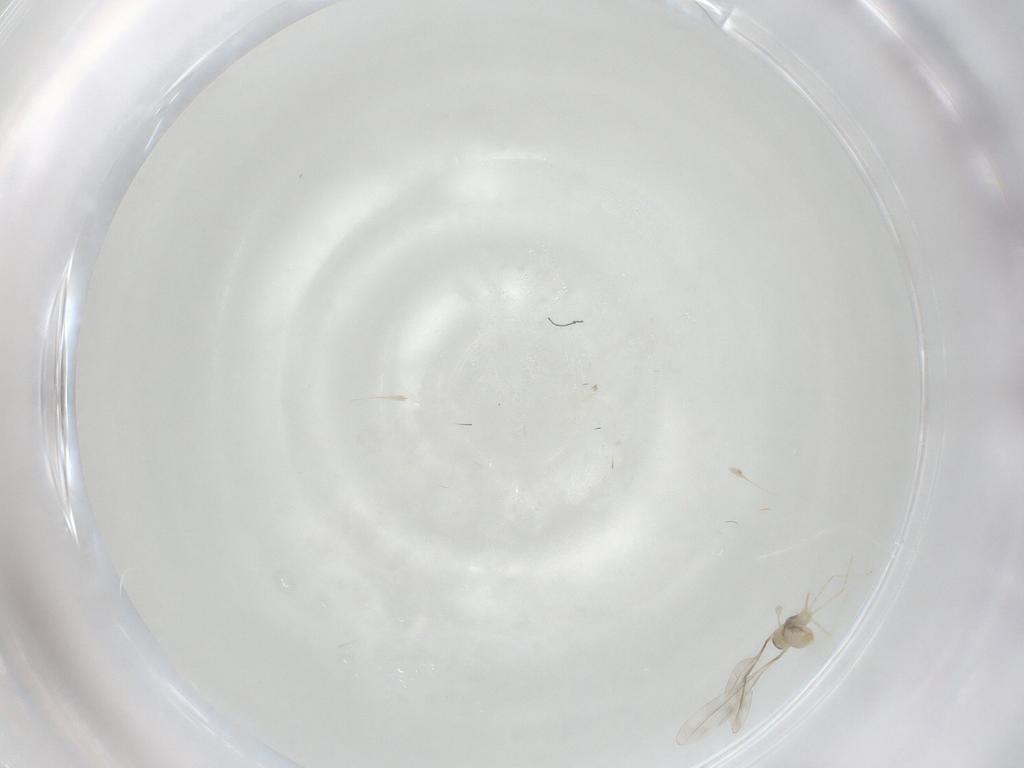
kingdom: Animalia
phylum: Arthropoda
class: Insecta
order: Diptera
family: Cecidomyiidae
